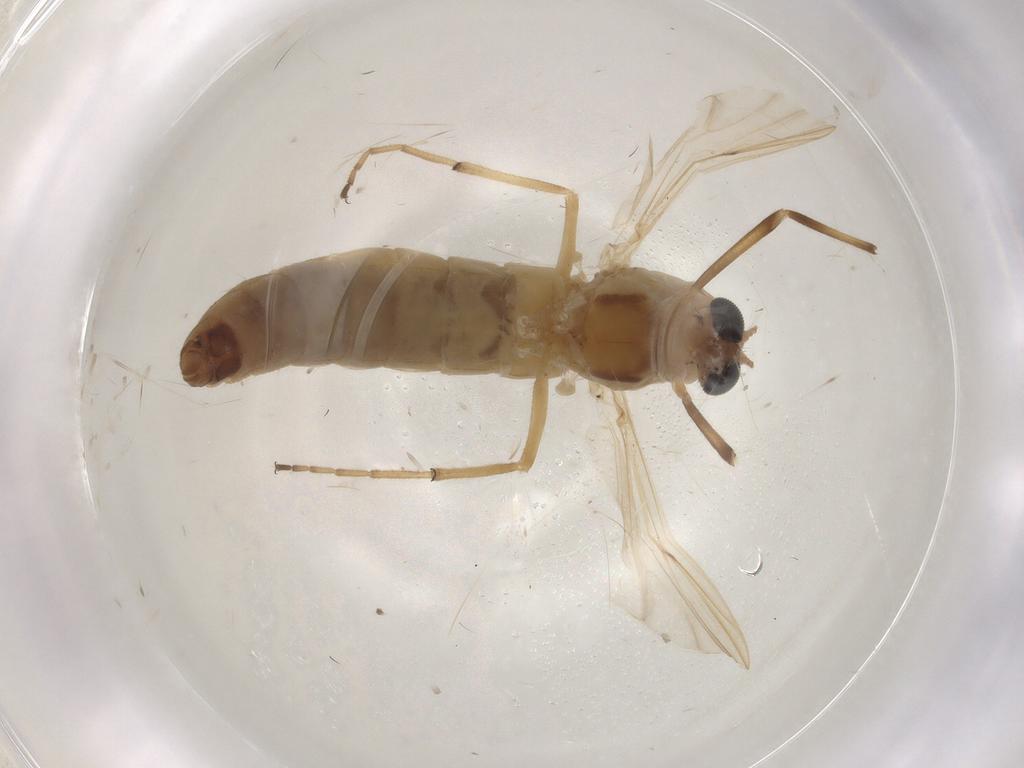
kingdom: Animalia
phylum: Arthropoda
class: Insecta
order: Diptera
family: Chironomidae
